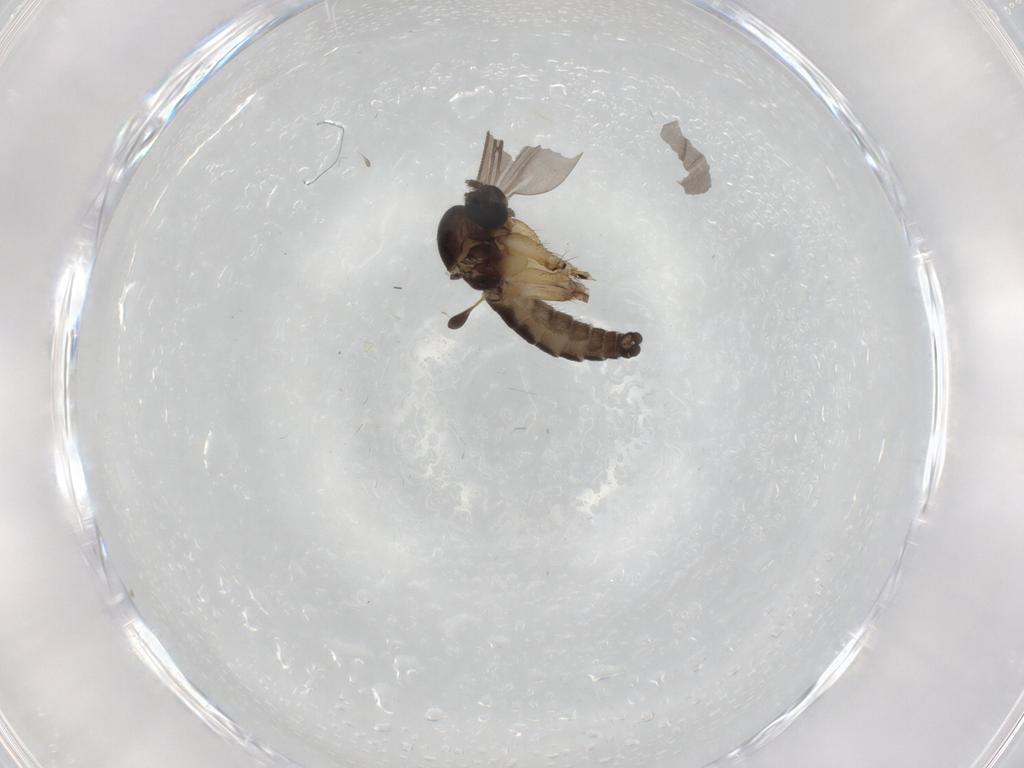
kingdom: Animalia
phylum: Arthropoda
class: Insecta
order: Diptera
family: Sciaridae
